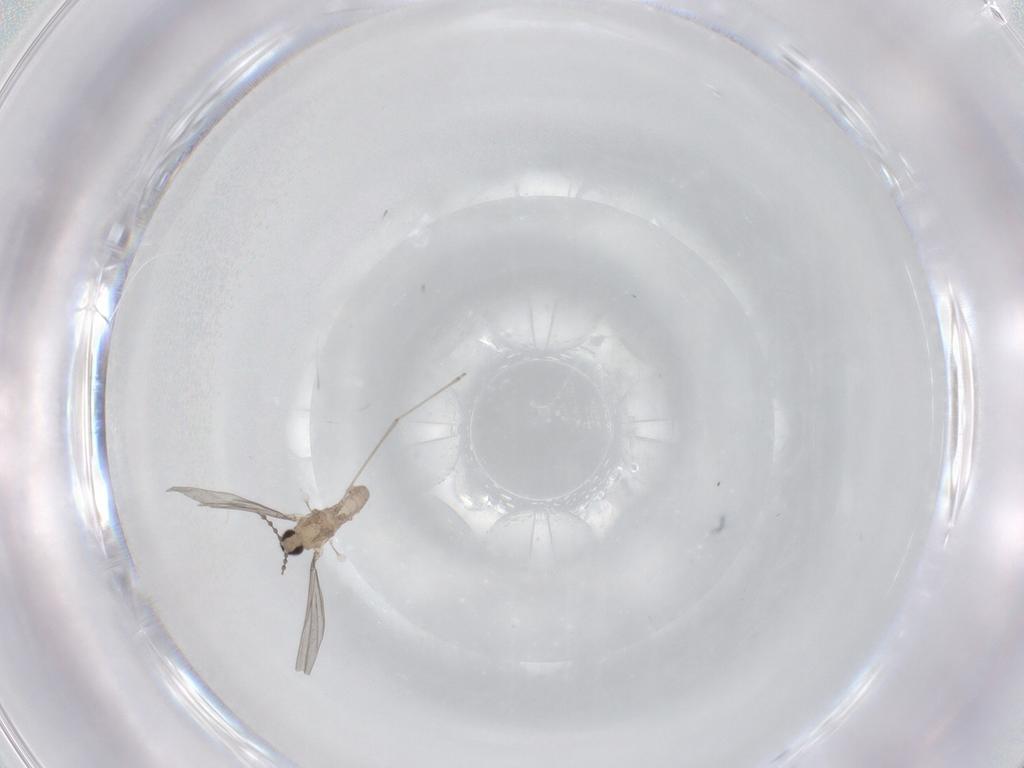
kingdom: Animalia
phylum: Arthropoda
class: Insecta
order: Diptera
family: Cecidomyiidae
